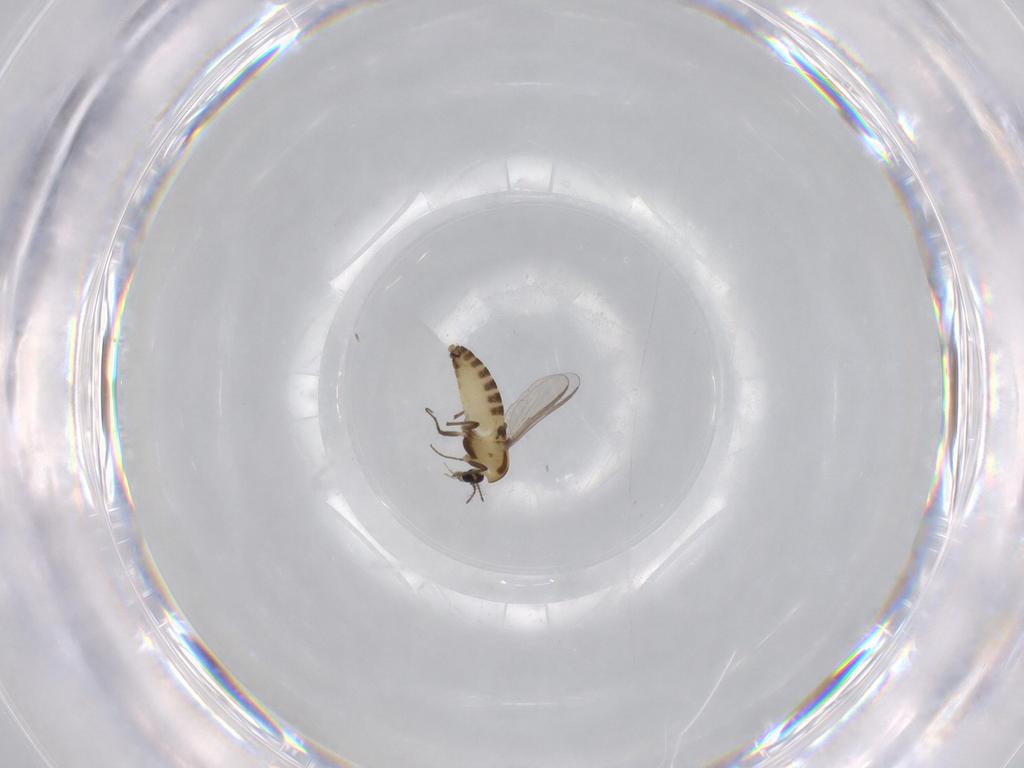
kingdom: Animalia
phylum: Arthropoda
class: Insecta
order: Diptera
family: Chironomidae
